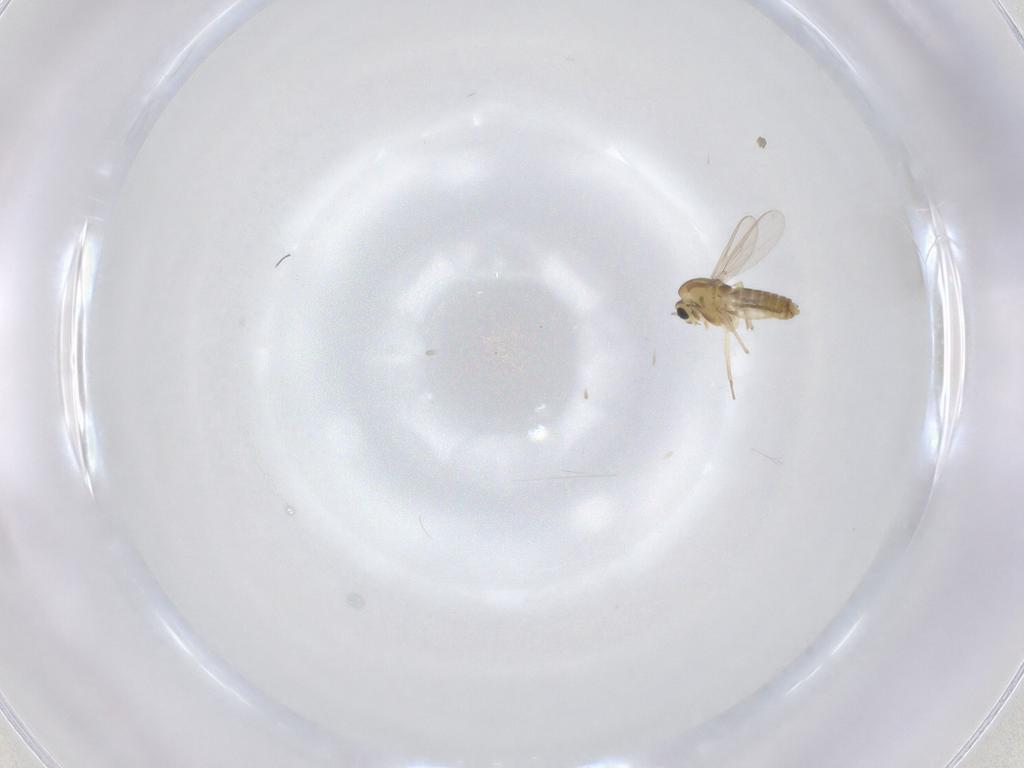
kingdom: Animalia
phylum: Arthropoda
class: Insecta
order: Diptera
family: Chironomidae
